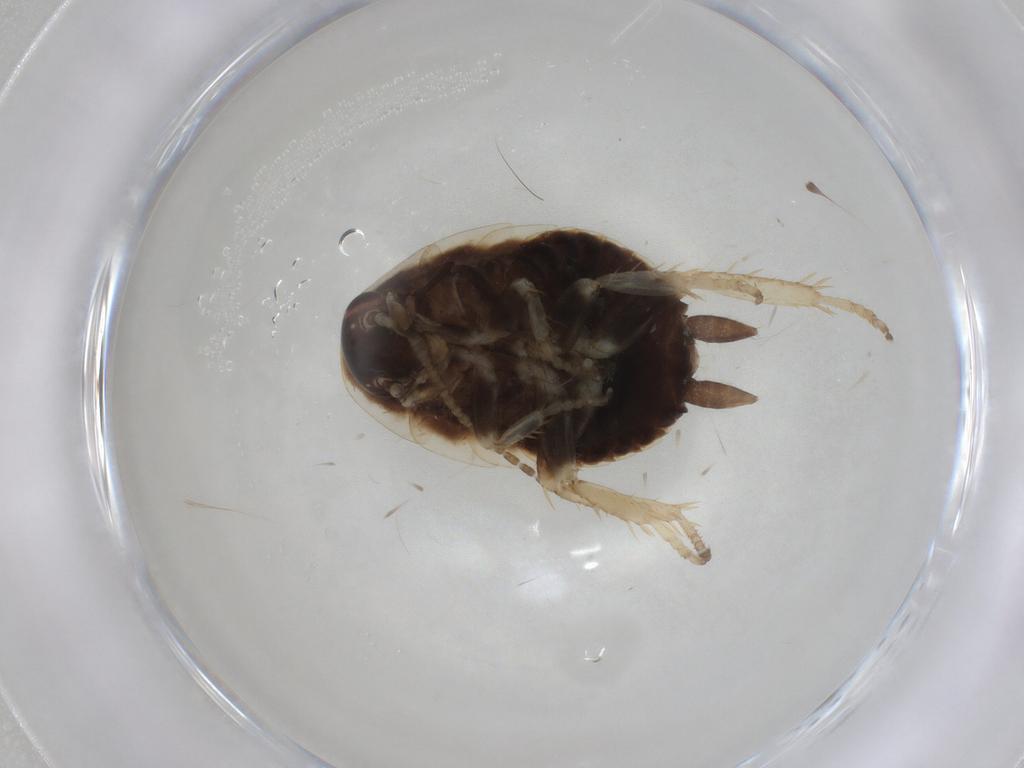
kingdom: Animalia
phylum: Arthropoda
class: Insecta
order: Blattodea
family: Ectobiidae
